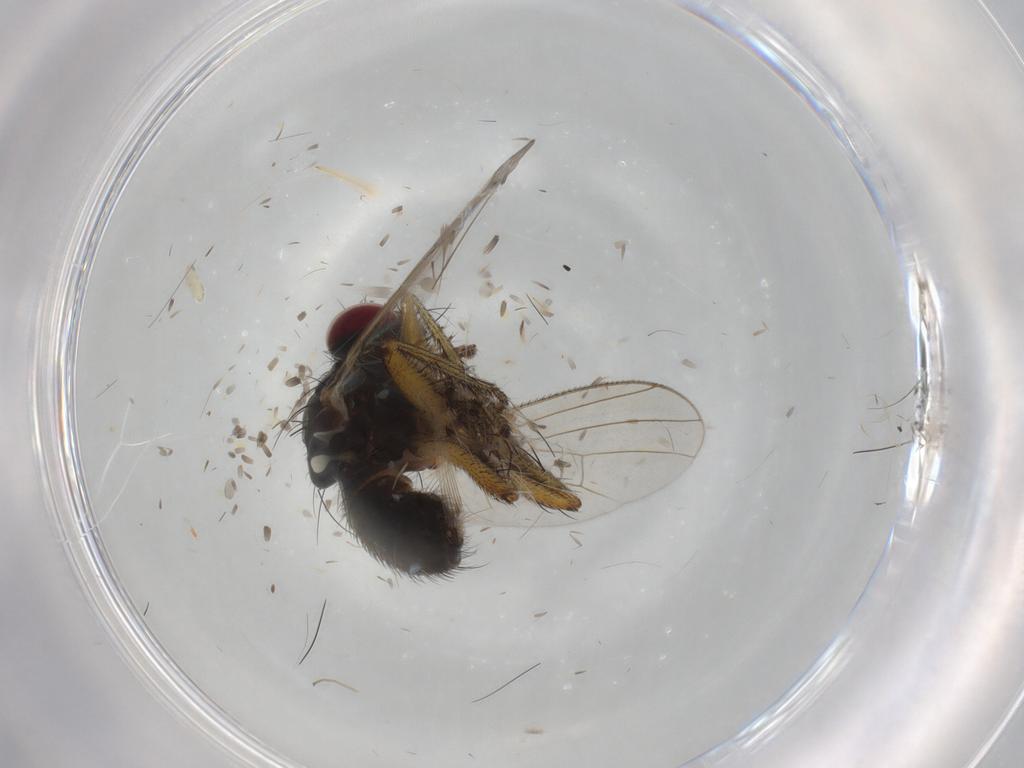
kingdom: Animalia
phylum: Arthropoda
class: Insecta
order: Diptera
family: Muscidae
